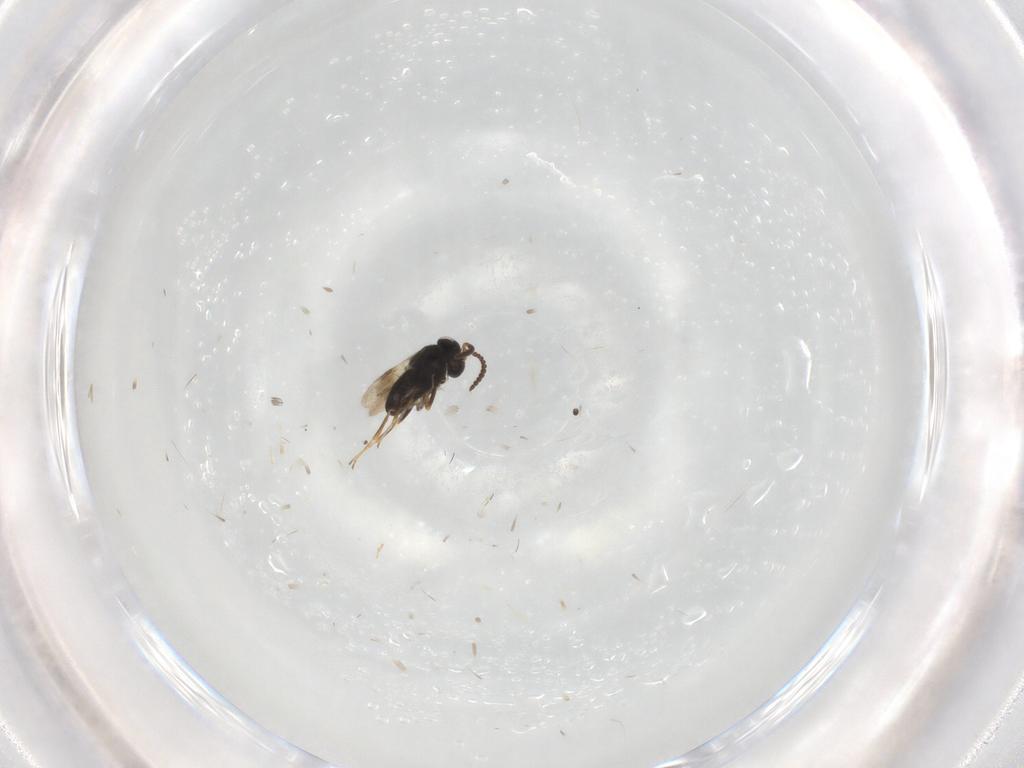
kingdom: Animalia
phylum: Arthropoda
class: Insecta
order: Hymenoptera
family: Scelionidae
